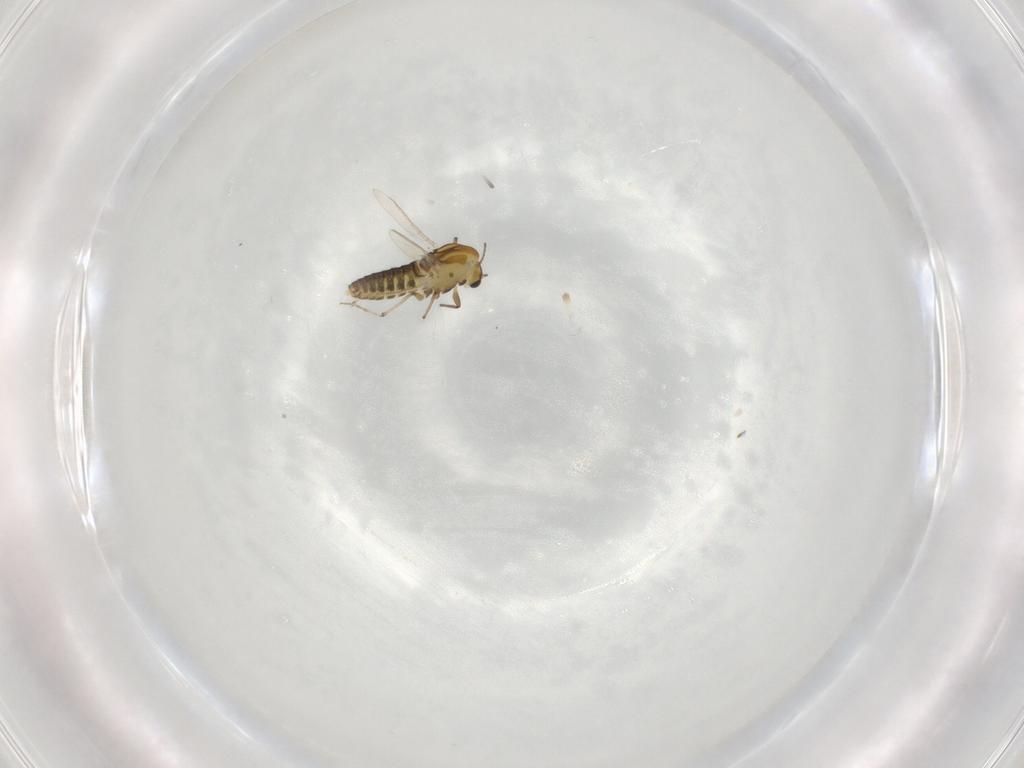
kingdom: Animalia
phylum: Arthropoda
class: Insecta
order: Diptera
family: Chironomidae
